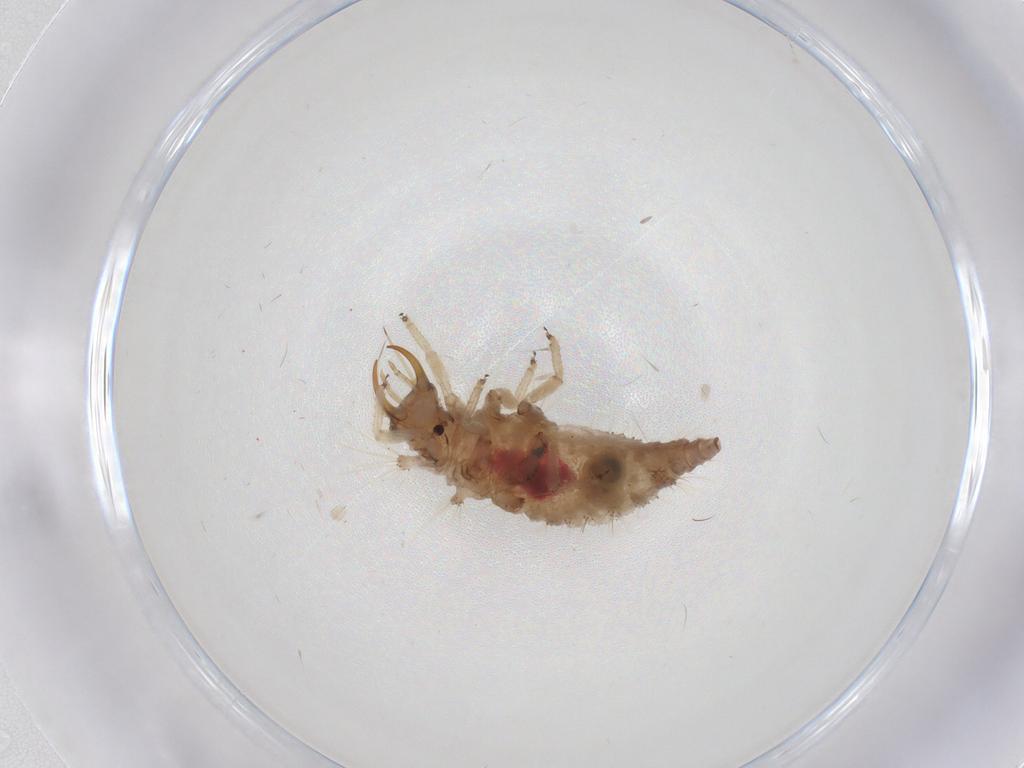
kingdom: Animalia
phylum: Arthropoda
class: Insecta
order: Neuroptera
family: Chrysopidae
